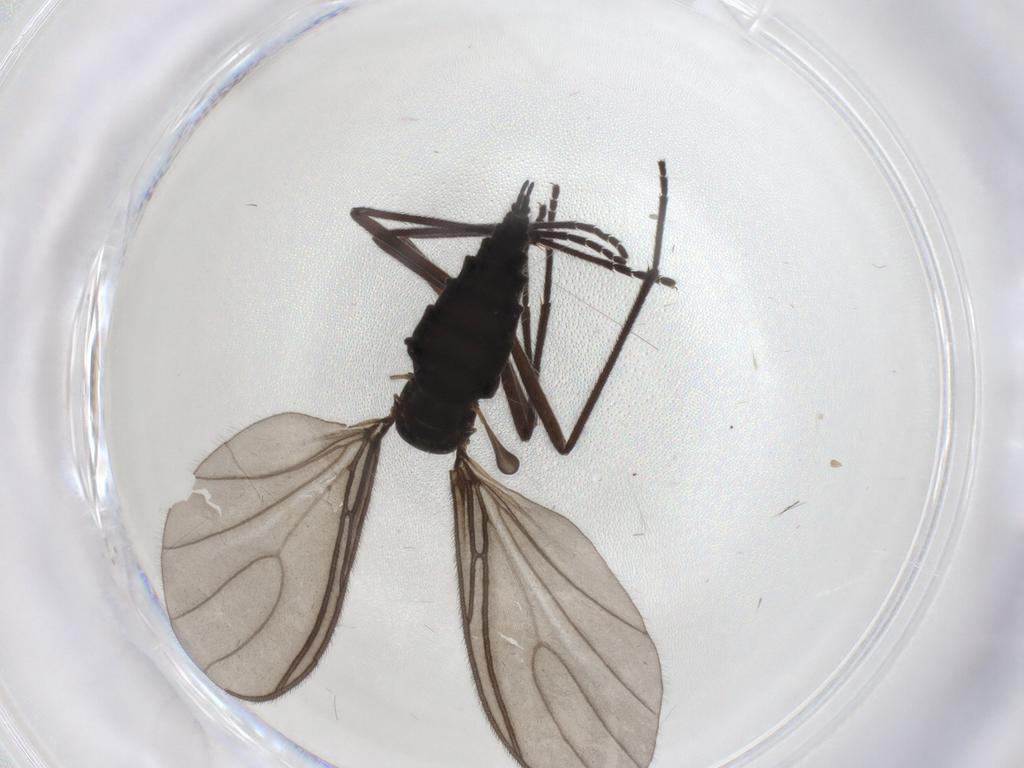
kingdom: Animalia
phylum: Arthropoda
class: Insecta
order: Diptera
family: Sciaridae
